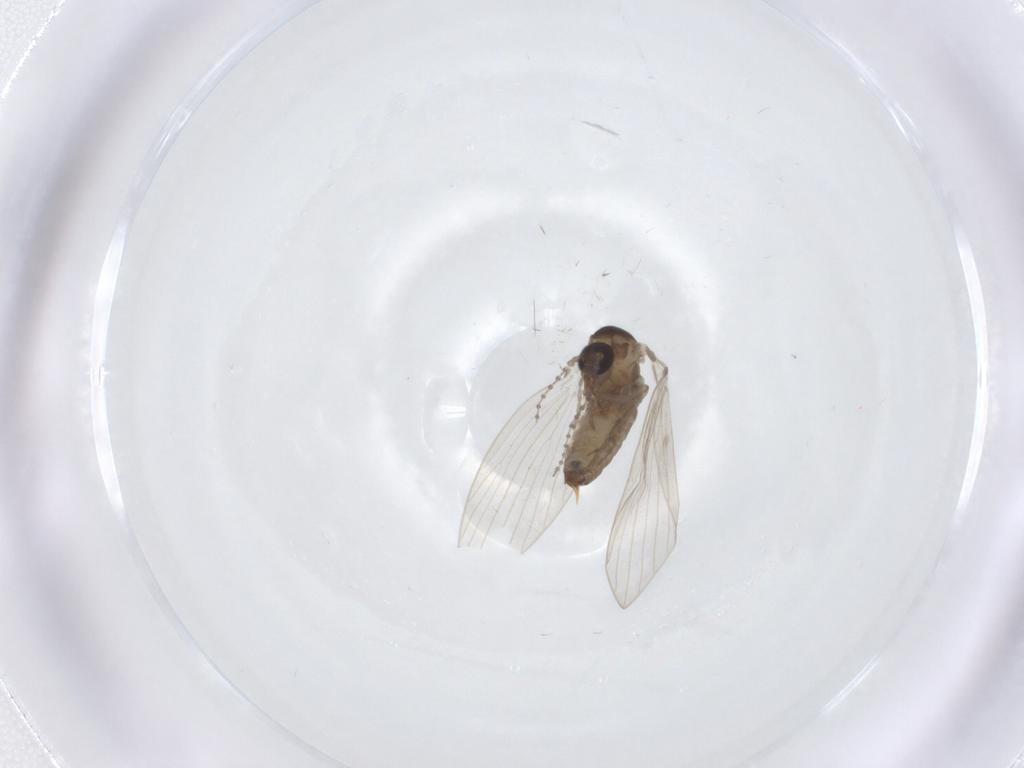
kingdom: Animalia
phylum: Arthropoda
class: Insecta
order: Diptera
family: Psychodidae
